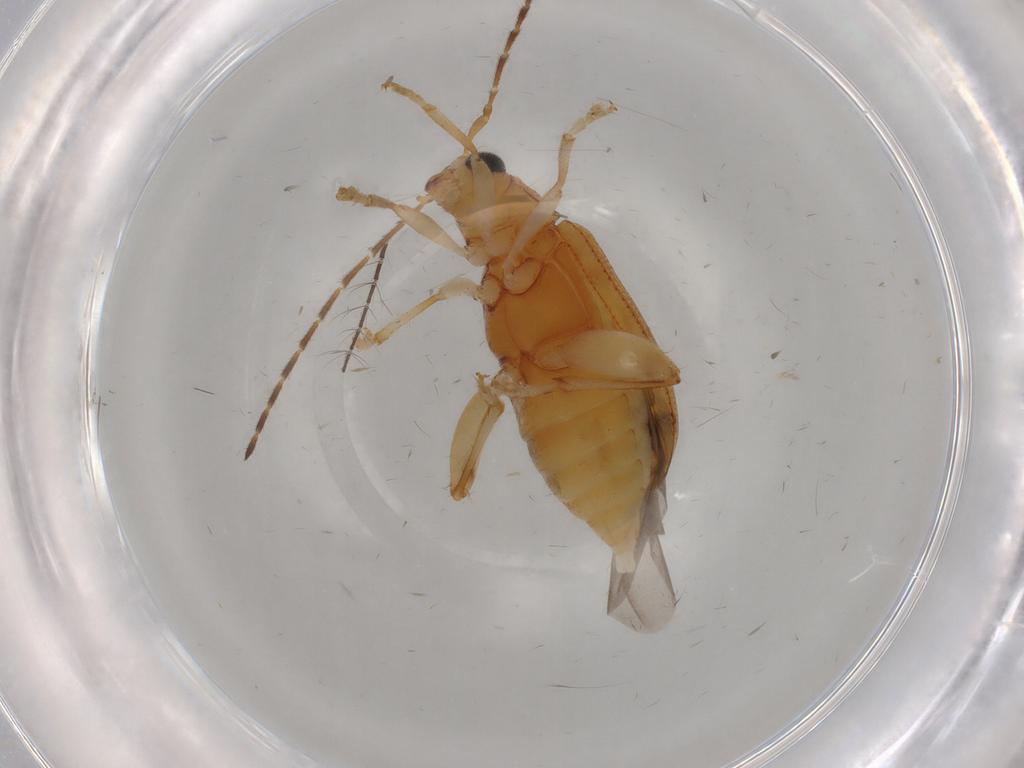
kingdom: Animalia
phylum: Arthropoda
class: Insecta
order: Coleoptera
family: Chrysomelidae
